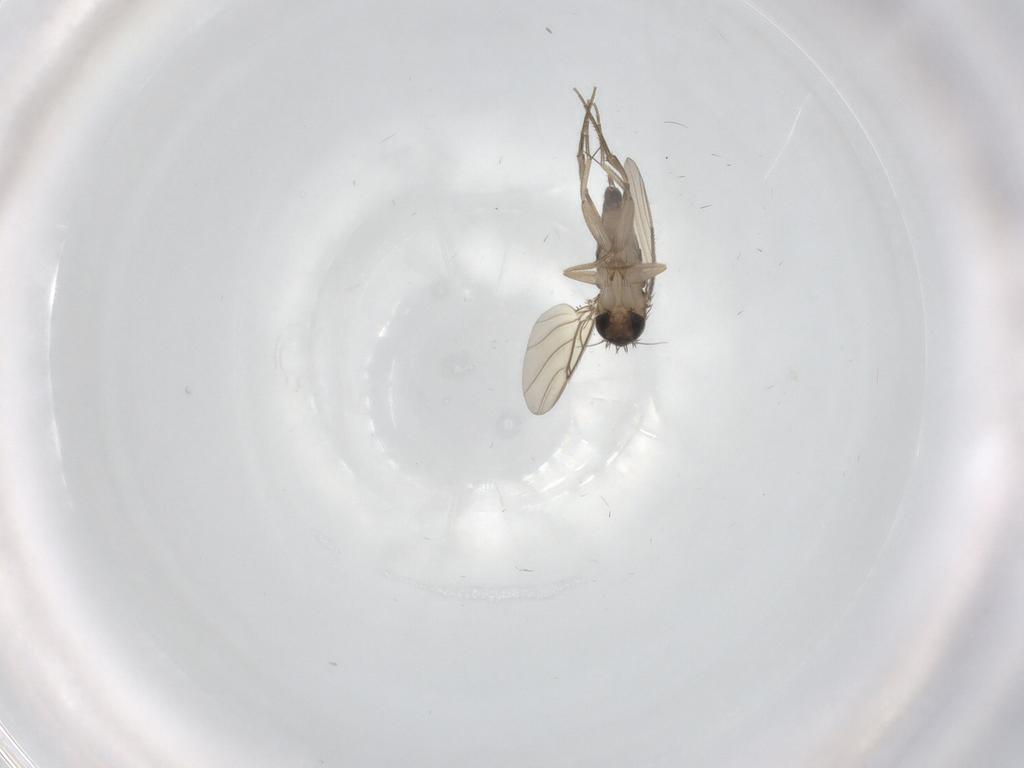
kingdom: Animalia
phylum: Arthropoda
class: Insecta
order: Diptera
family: Phoridae
